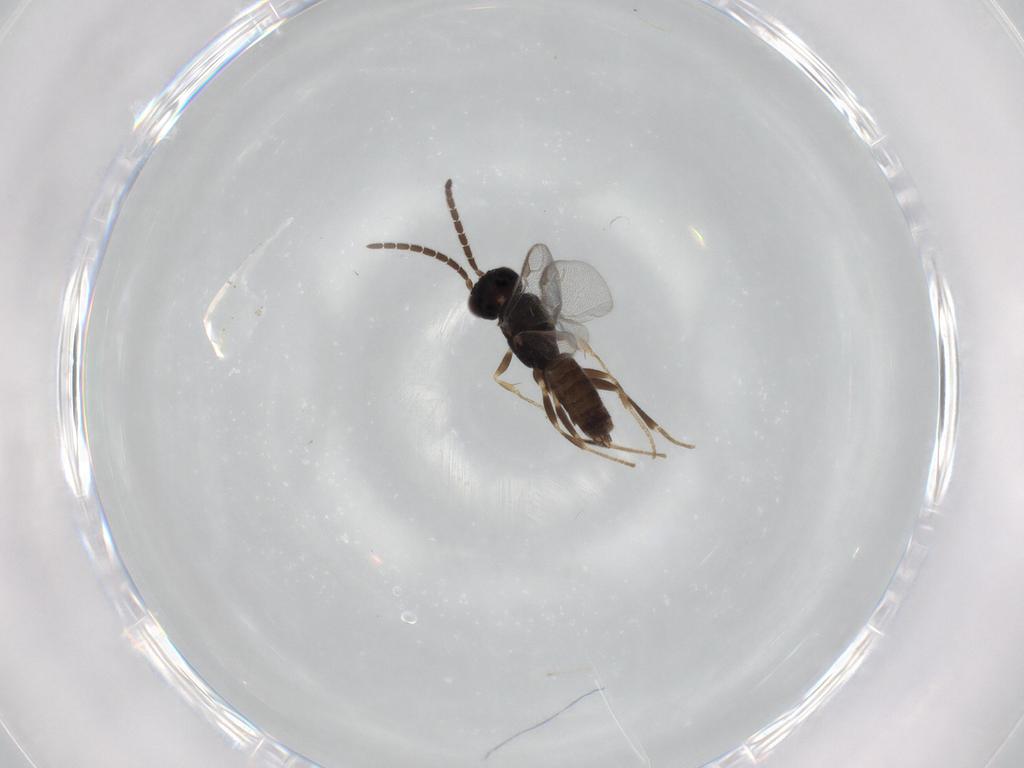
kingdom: Animalia
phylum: Arthropoda
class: Insecta
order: Hymenoptera
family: Dryinidae
